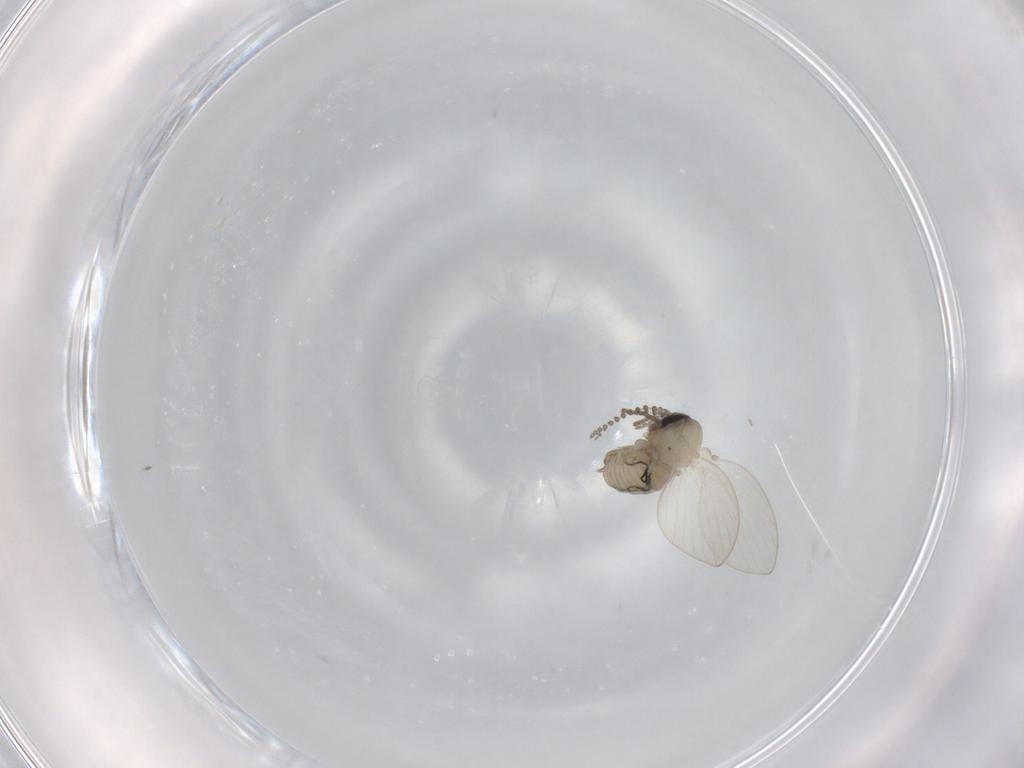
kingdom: Animalia
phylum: Arthropoda
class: Insecta
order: Diptera
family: Psychodidae
